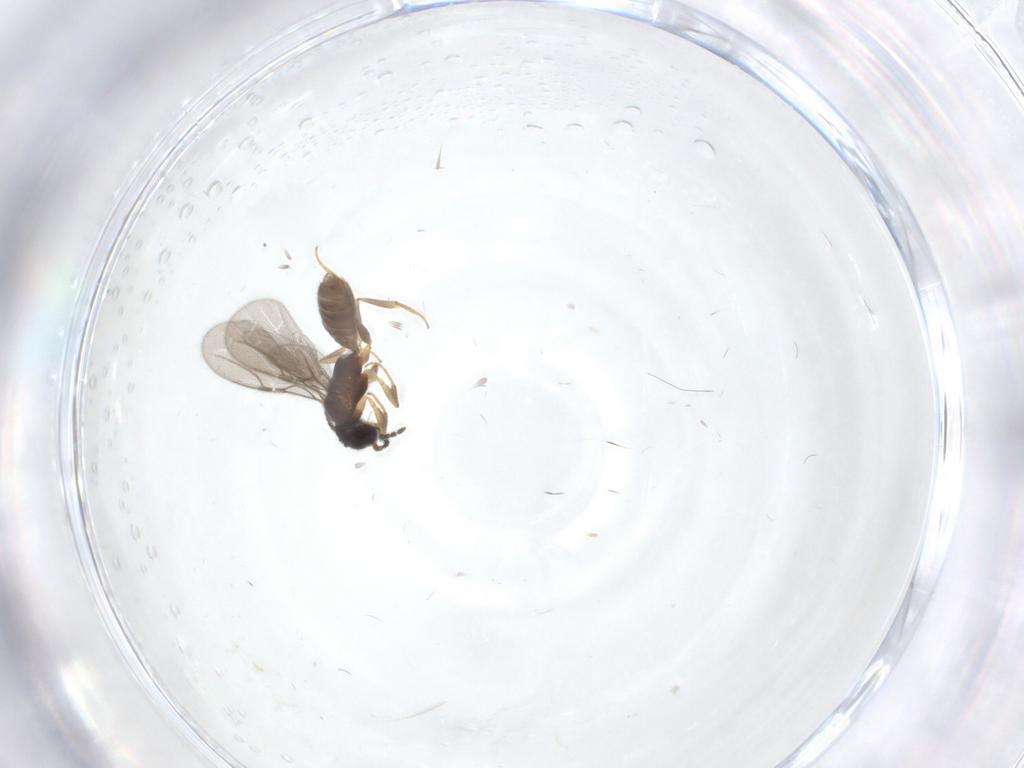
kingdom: Animalia
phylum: Arthropoda
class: Insecta
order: Hymenoptera
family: Bethylidae
